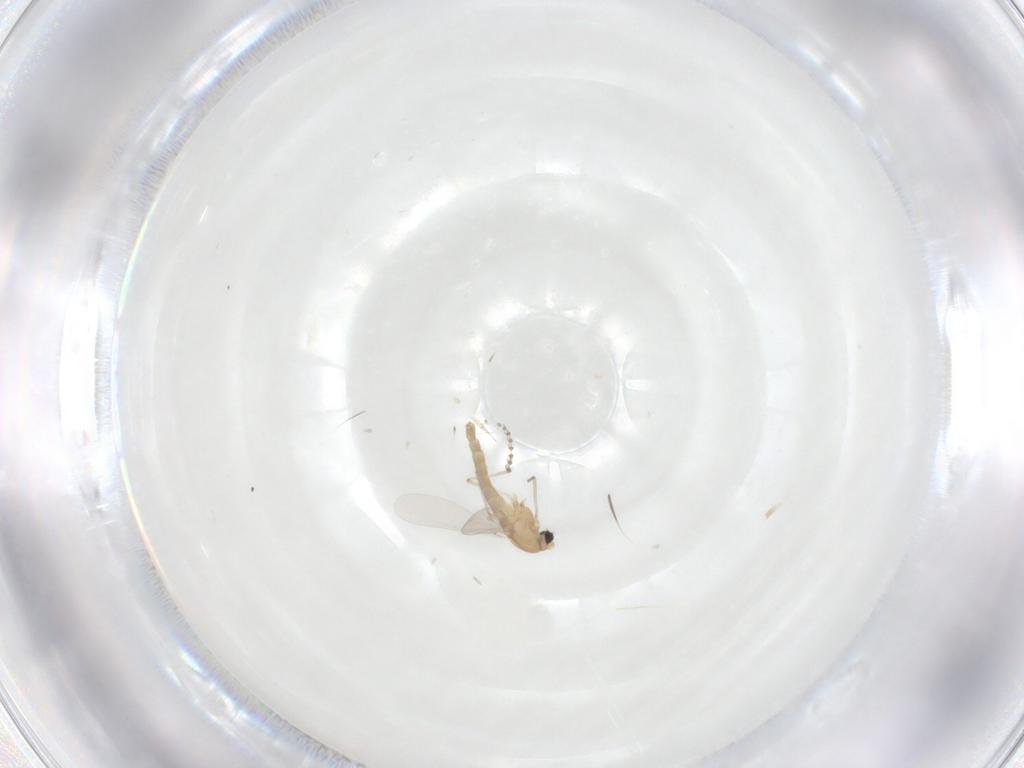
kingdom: Animalia
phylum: Arthropoda
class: Insecta
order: Diptera
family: Psychodidae
